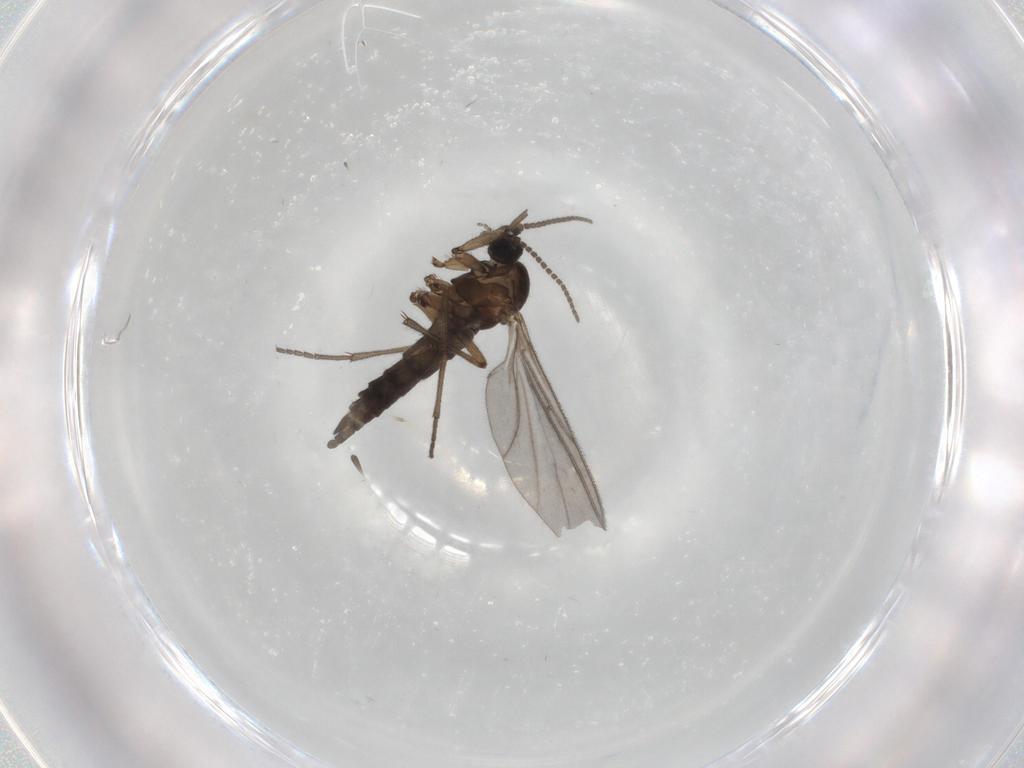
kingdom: Animalia
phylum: Arthropoda
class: Insecta
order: Diptera
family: Sciaridae
